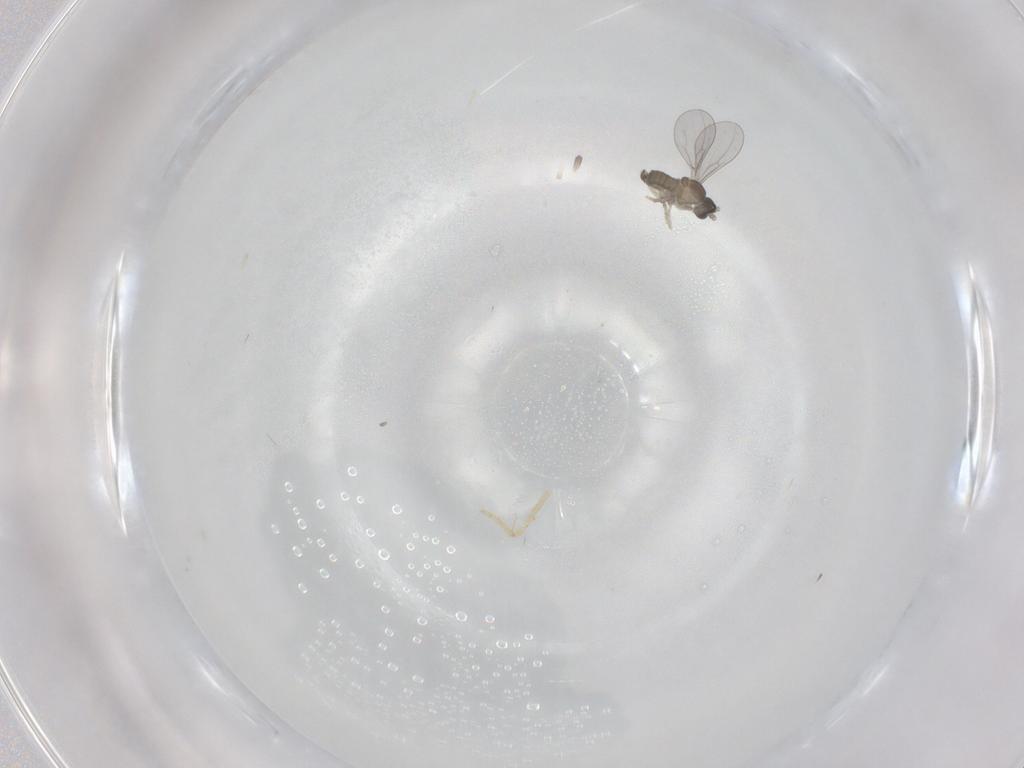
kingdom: Animalia
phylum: Arthropoda
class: Insecta
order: Diptera
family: Cecidomyiidae
